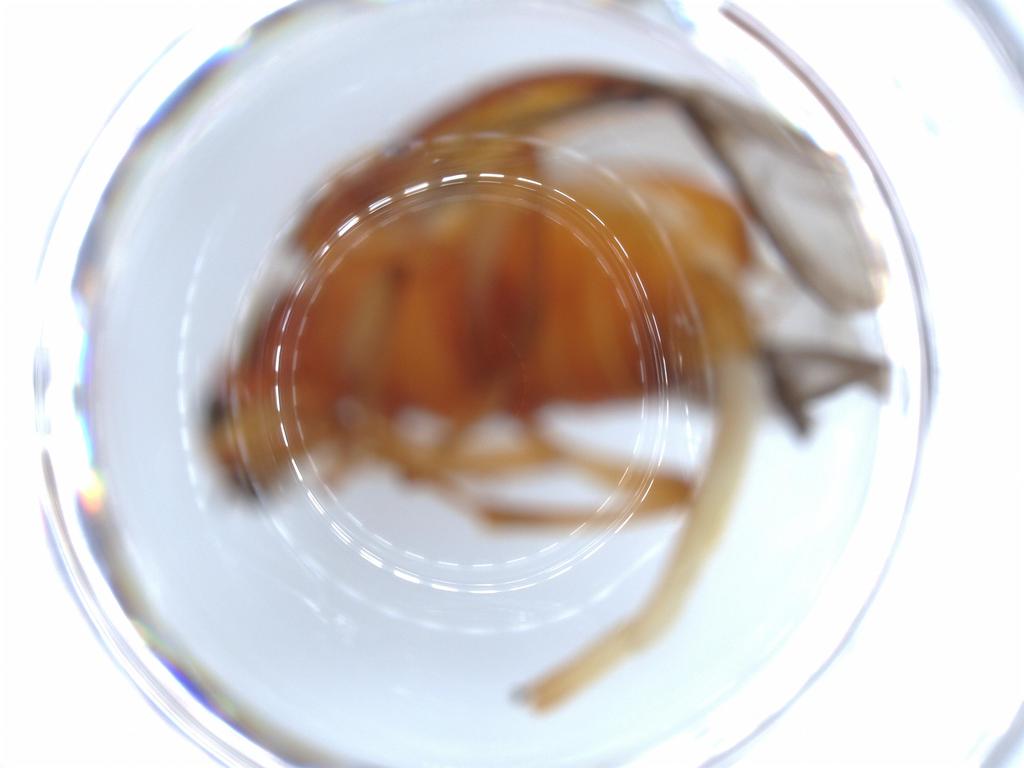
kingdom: Animalia
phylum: Arthropoda
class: Insecta
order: Coleoptera
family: Chrysomelidae
